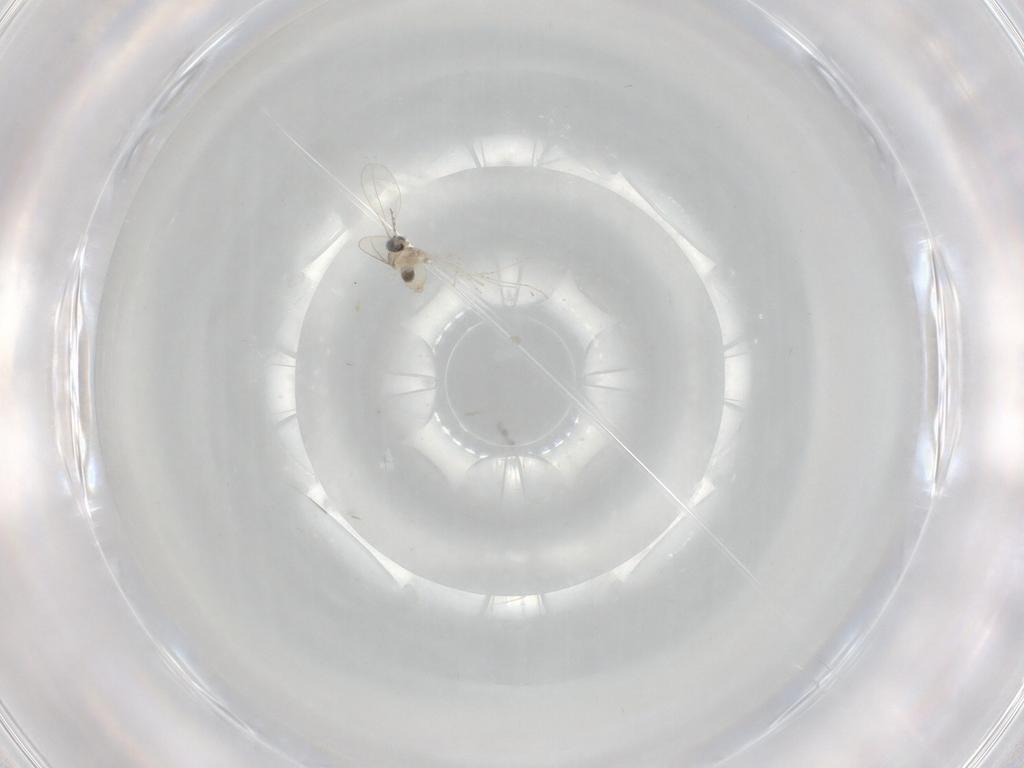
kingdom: Animalia
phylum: Arthropoda
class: Insecta
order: Diptera
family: Cecidomyiidae
